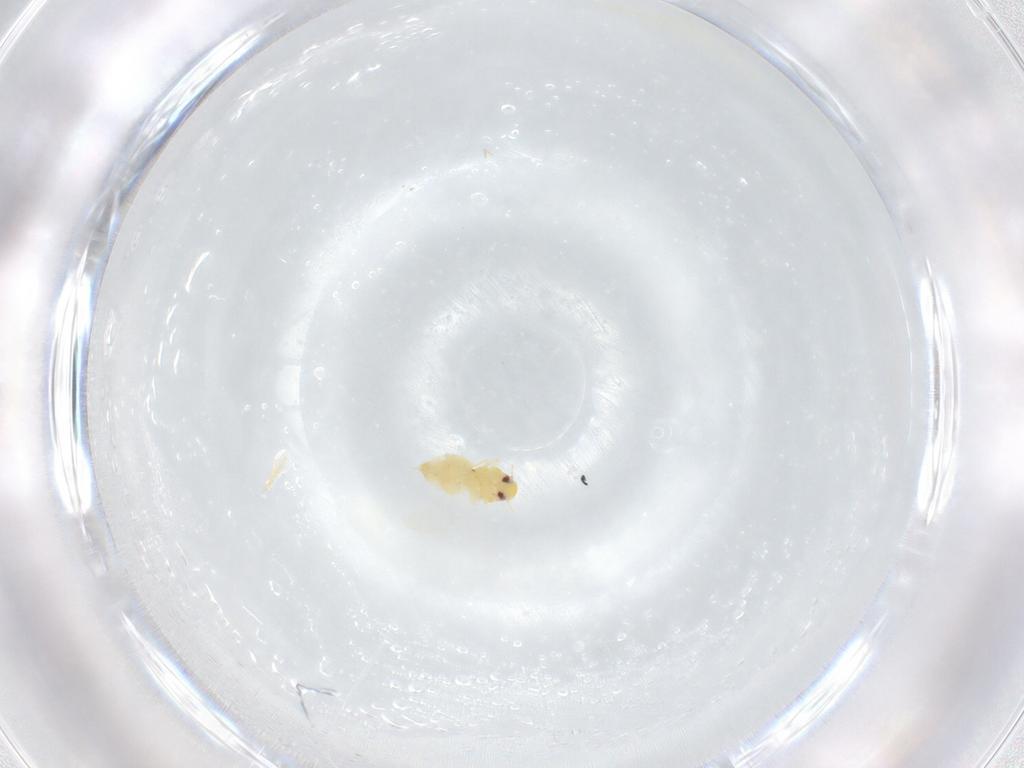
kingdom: Animalia
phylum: Arthropoda
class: Insecta
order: Hemiptera
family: Aleyrodidae
